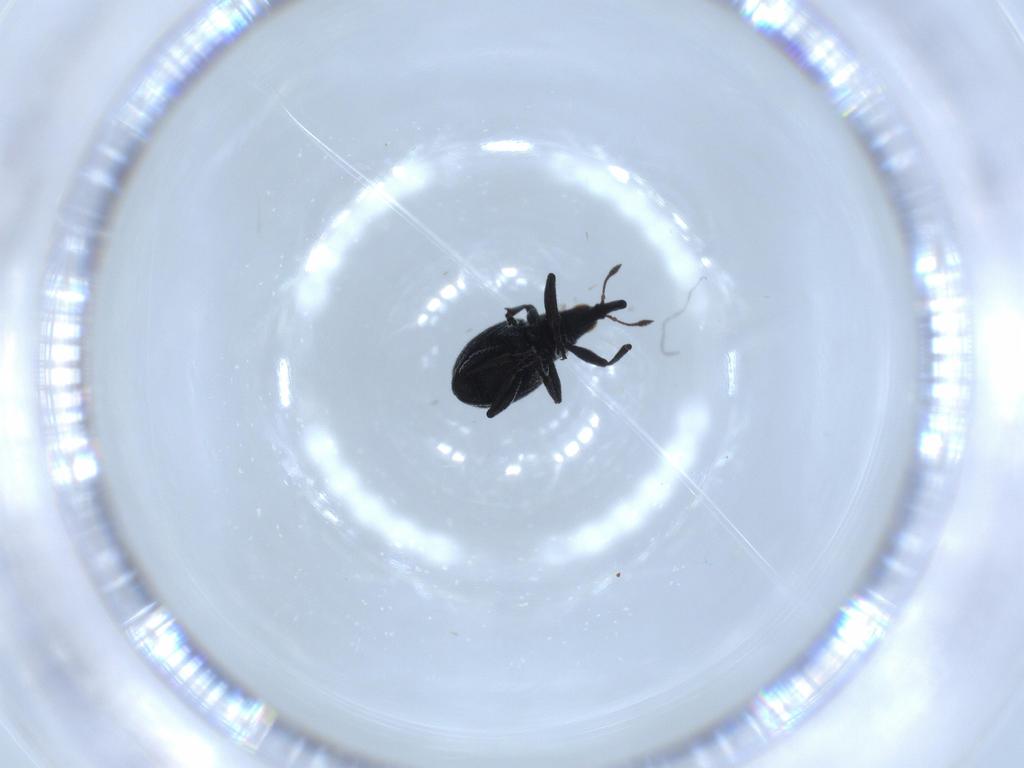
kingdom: Animalia
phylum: Arthropoda
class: Insecta
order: Coleoptera
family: Brentidae
